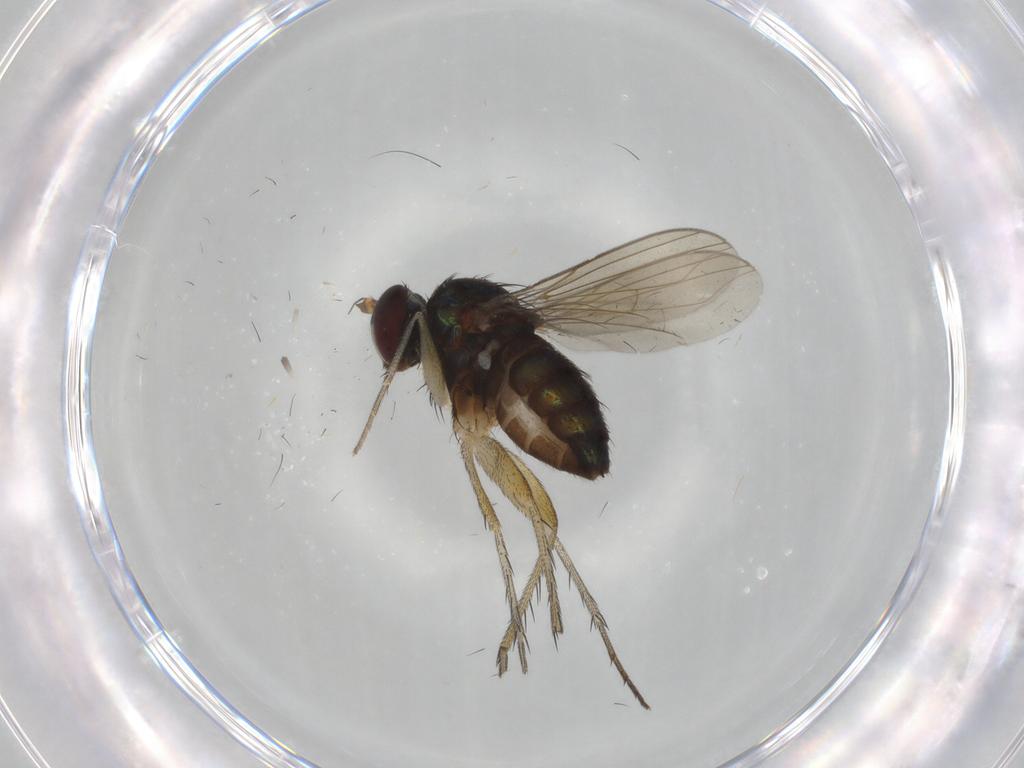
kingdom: Animalia
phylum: Arthropoda
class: Insecta
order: Diptera
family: Dolichopodidae
